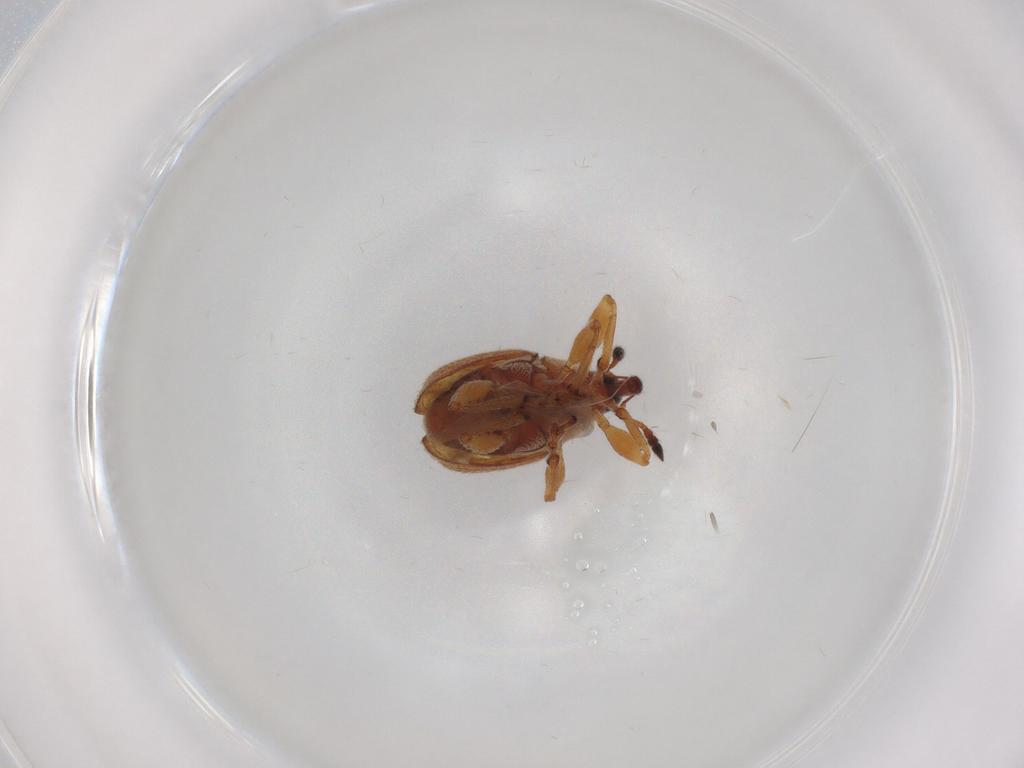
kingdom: Animalia
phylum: Arthropoda
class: Insecta
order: Coleoptera
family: Brentidae
